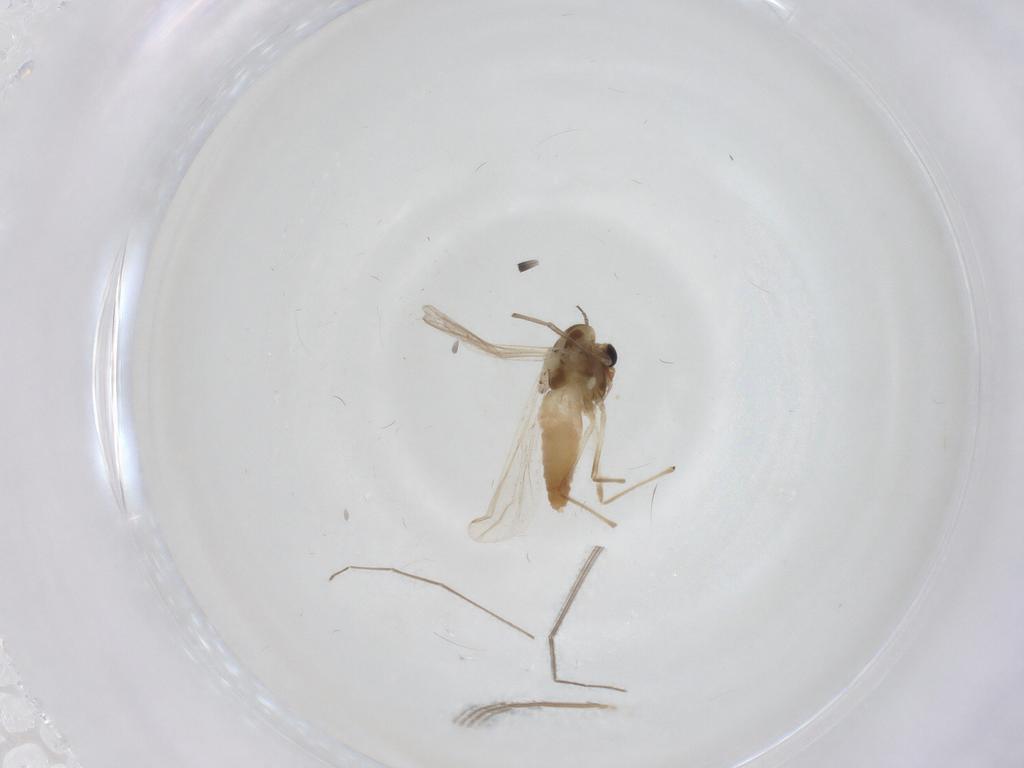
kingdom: Animalia
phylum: Arthropoda
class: Insecta
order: Diptera
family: Chironomidae
